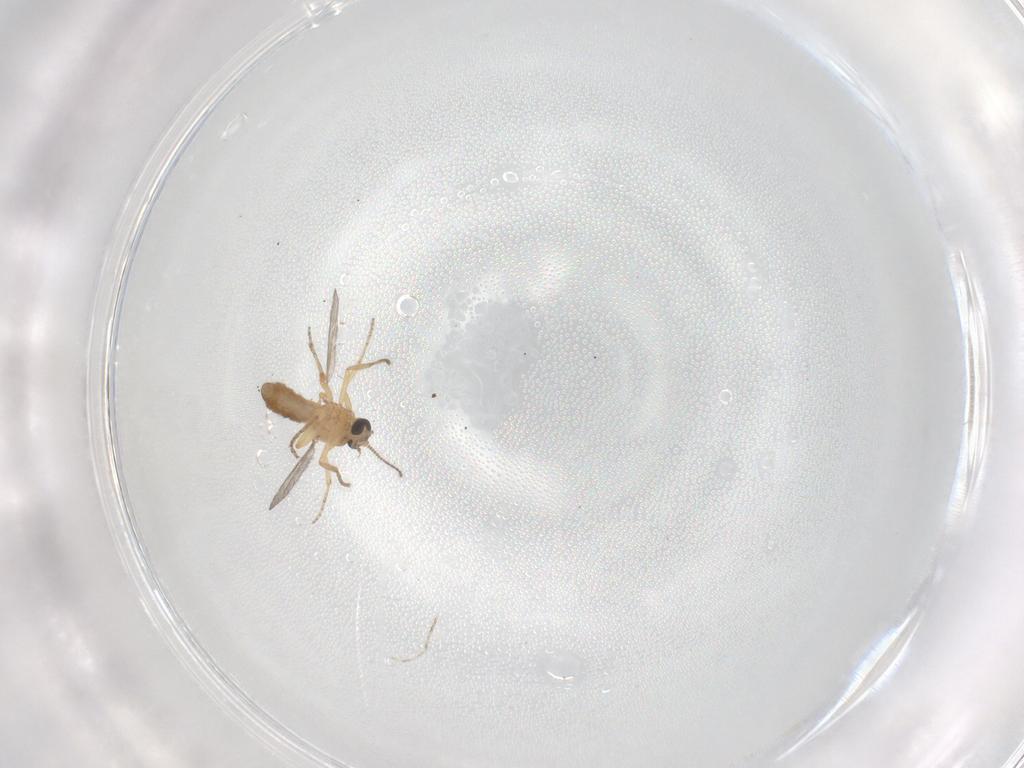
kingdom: Animalia
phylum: Arthropoda
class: Insecta
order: Diptera
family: Ceratopogonidae
